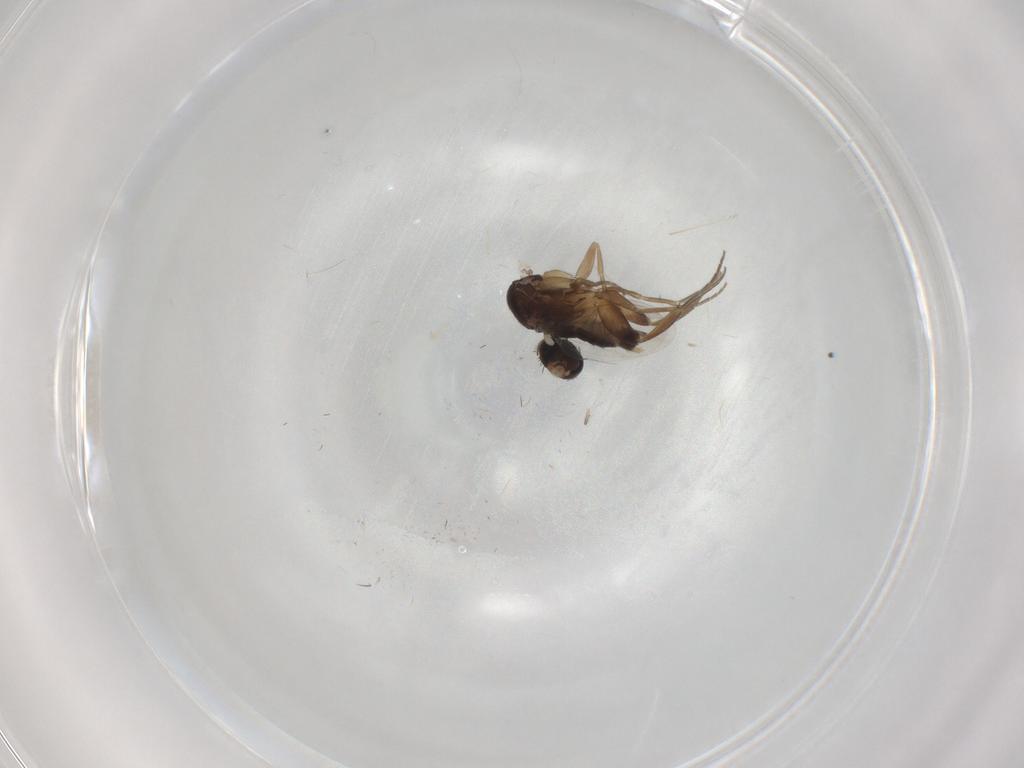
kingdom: Animalia
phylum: Arthropoda
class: Insecta
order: Diptera
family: Phoridae
